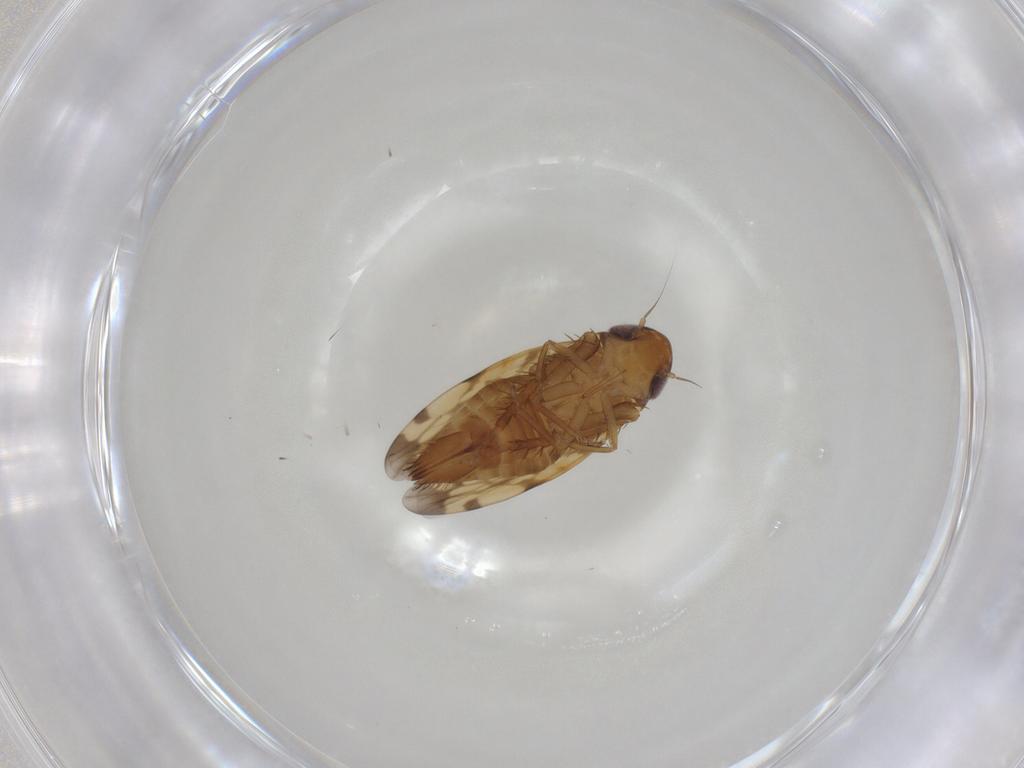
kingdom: Animalia
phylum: Arthropoda
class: Insecta
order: Hemiptera
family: Cicadellidae
